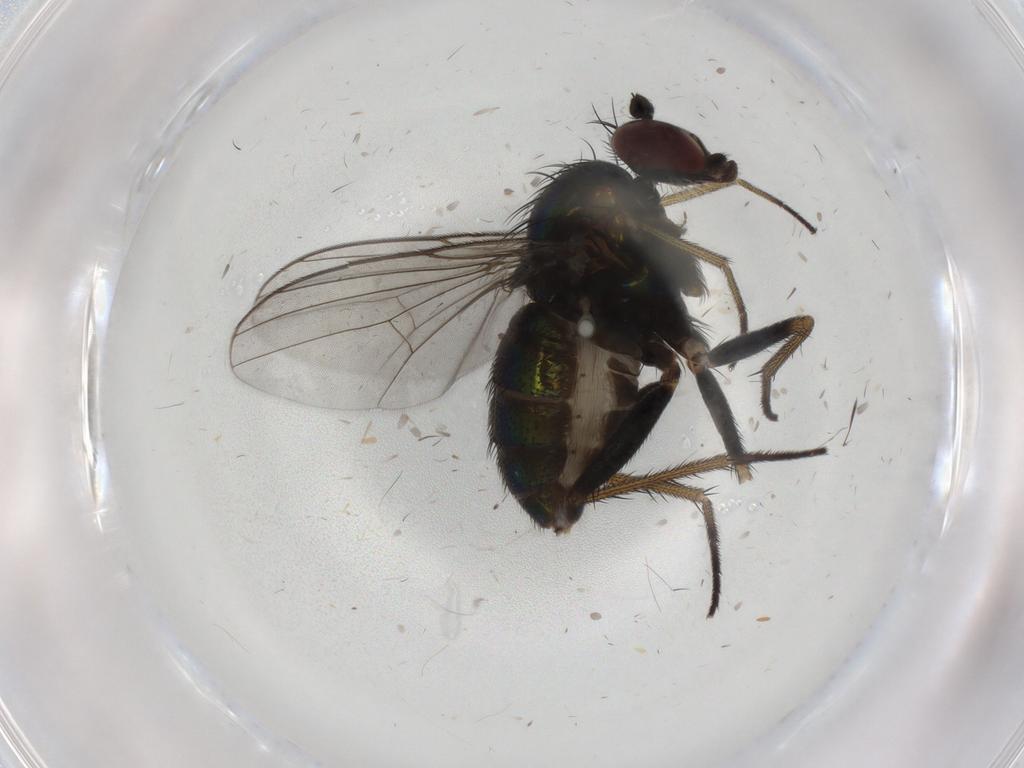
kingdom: Animalia
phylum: Arthropoda
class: Insecta
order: Diptera
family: Dolichopodidae
